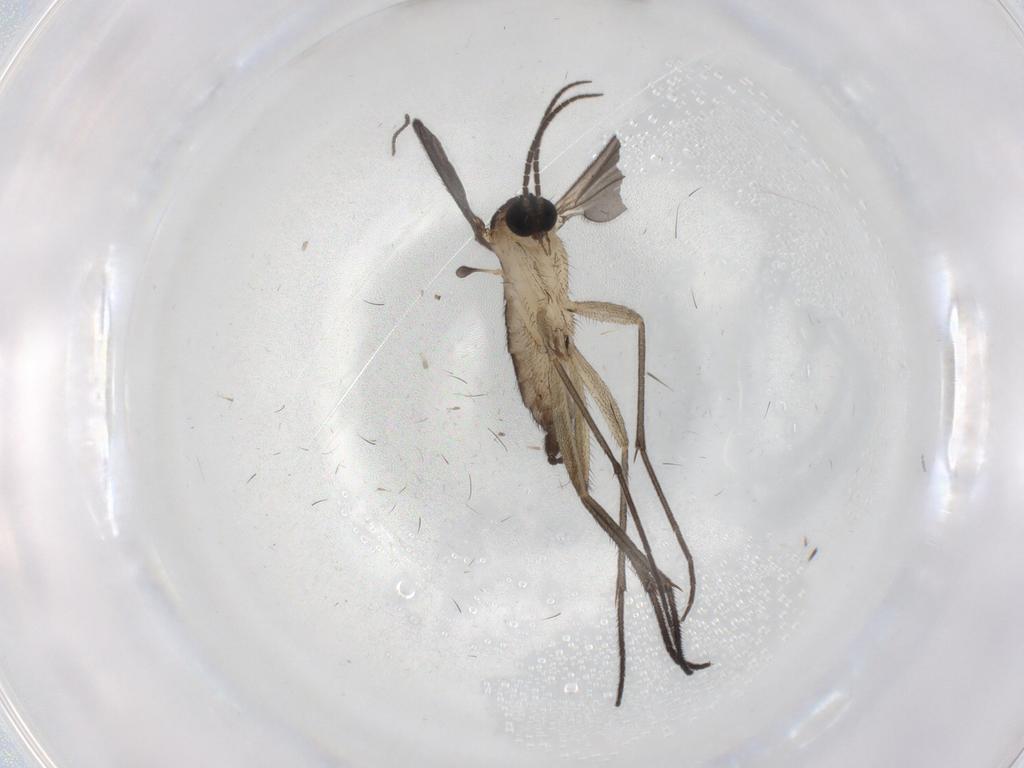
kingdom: Animalia
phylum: Arthropoda
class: Insecta
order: Diptera
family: Sciaridae
